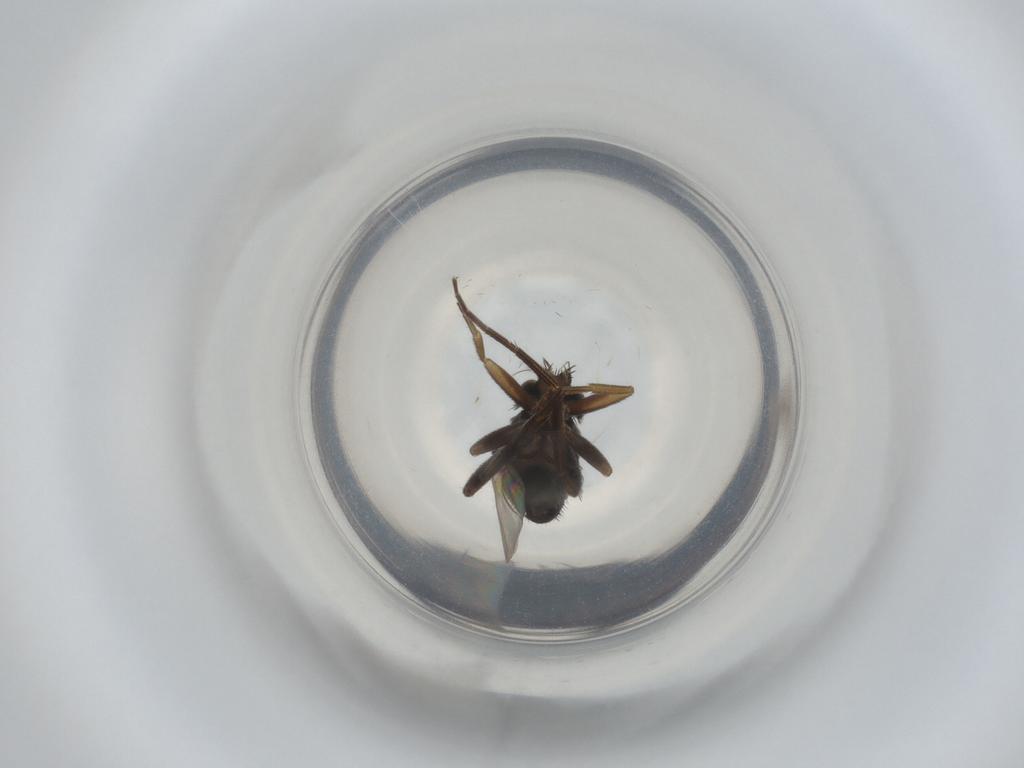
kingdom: Animalia
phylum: Arthropoda
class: Insecta
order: Diptera
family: Phoridae
